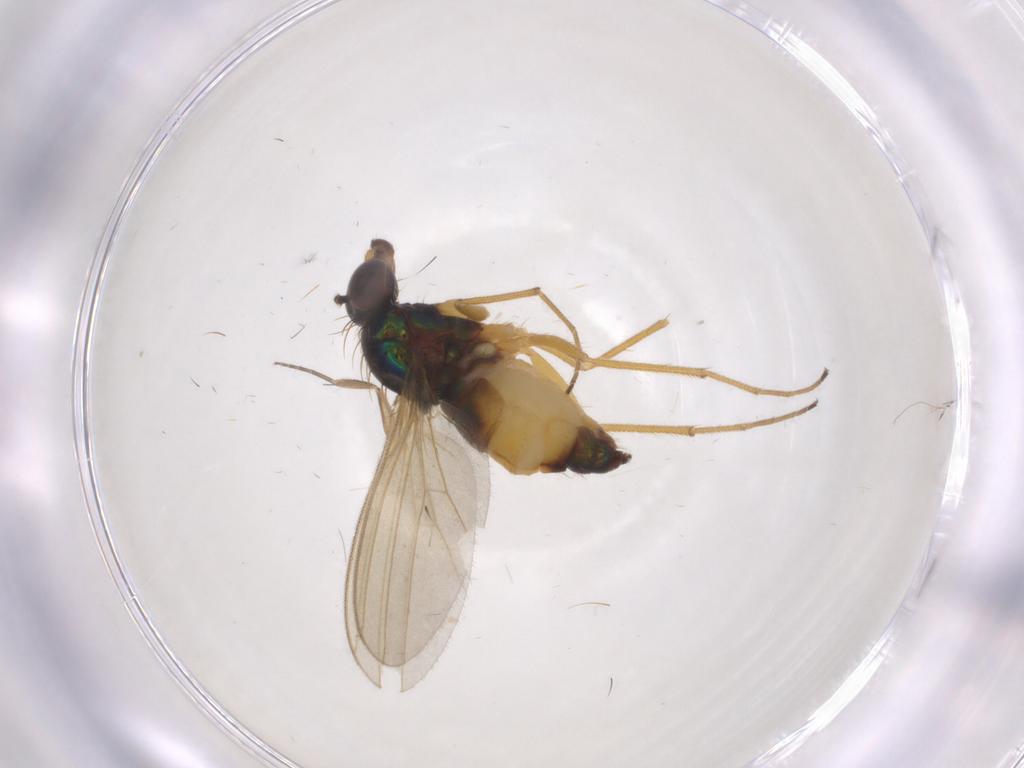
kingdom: Animalia
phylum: Arthropoda
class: Insecta
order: Diptera
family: Dolichopodidae
